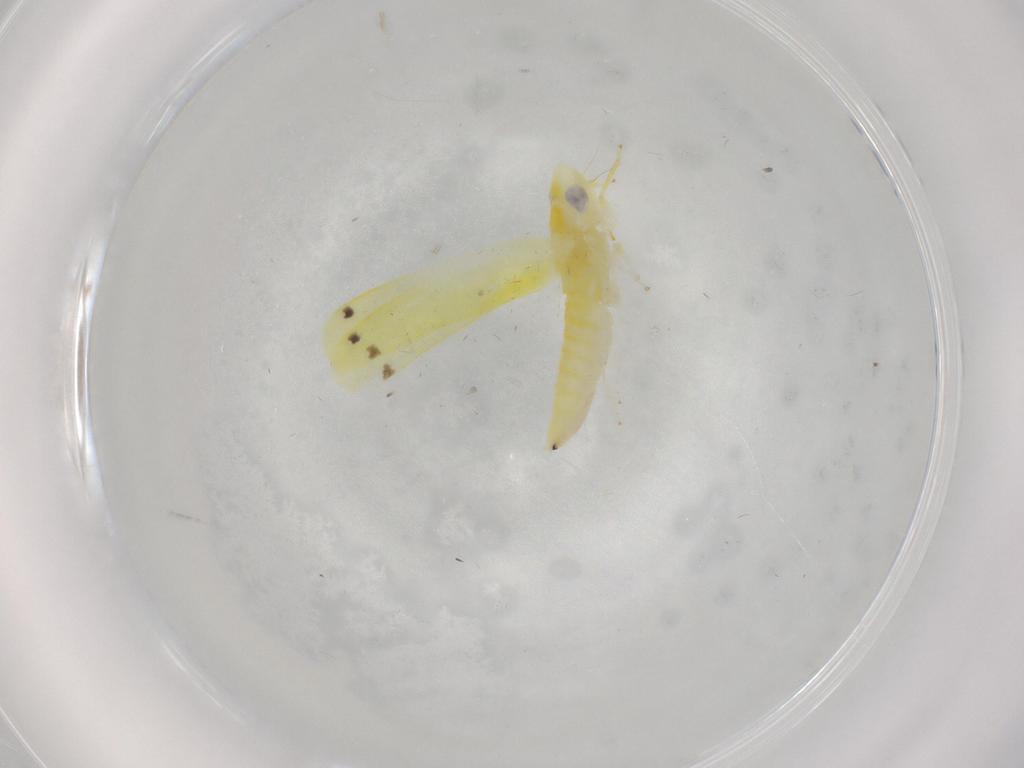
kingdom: Animalia
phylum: Arthropoda
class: Insecta
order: Hemiptera
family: Cicadellidae
